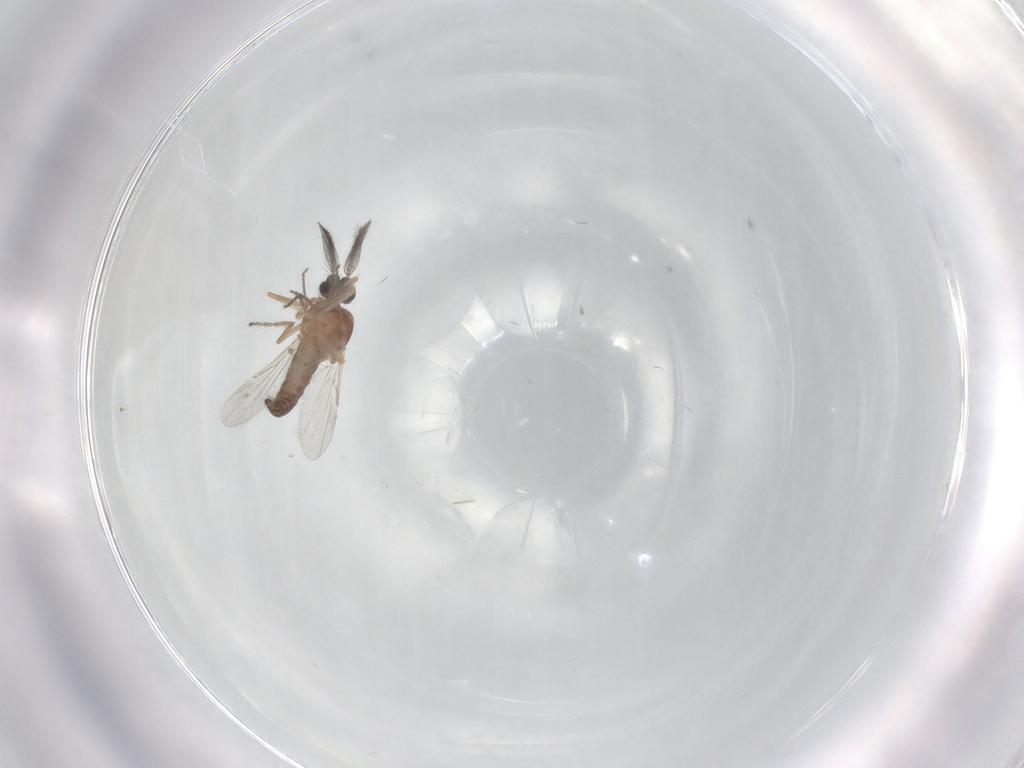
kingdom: Animalia
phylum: Arthropoda
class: Insecta
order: Diptera
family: Ceratopogonidae
